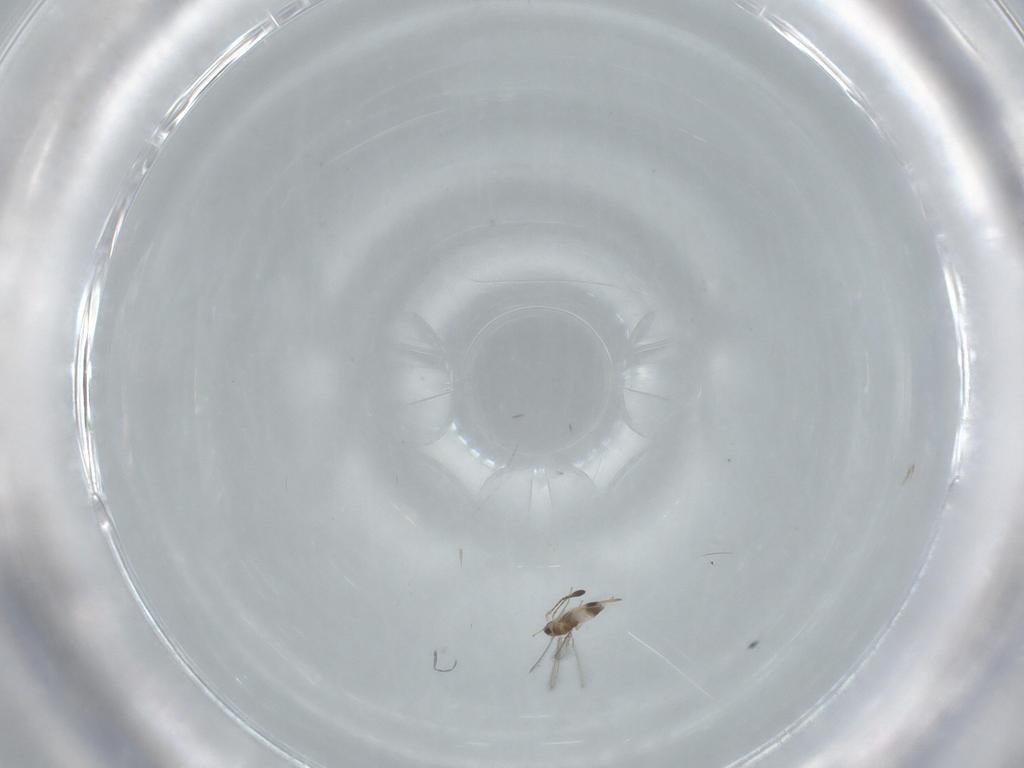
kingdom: Animalia
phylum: Arthropoda
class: Insecta
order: Hymenoptera
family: Mymaridae
